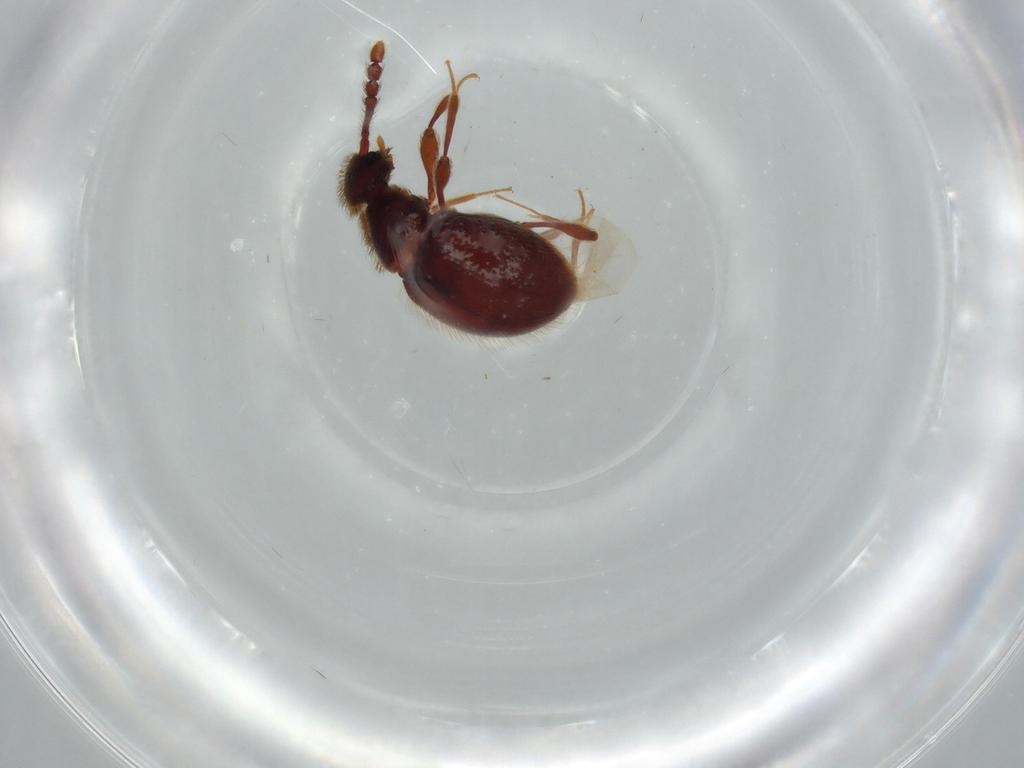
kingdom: Animalia
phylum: Arthropoda
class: Insecta
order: Coleoptera
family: Staphylinidae
